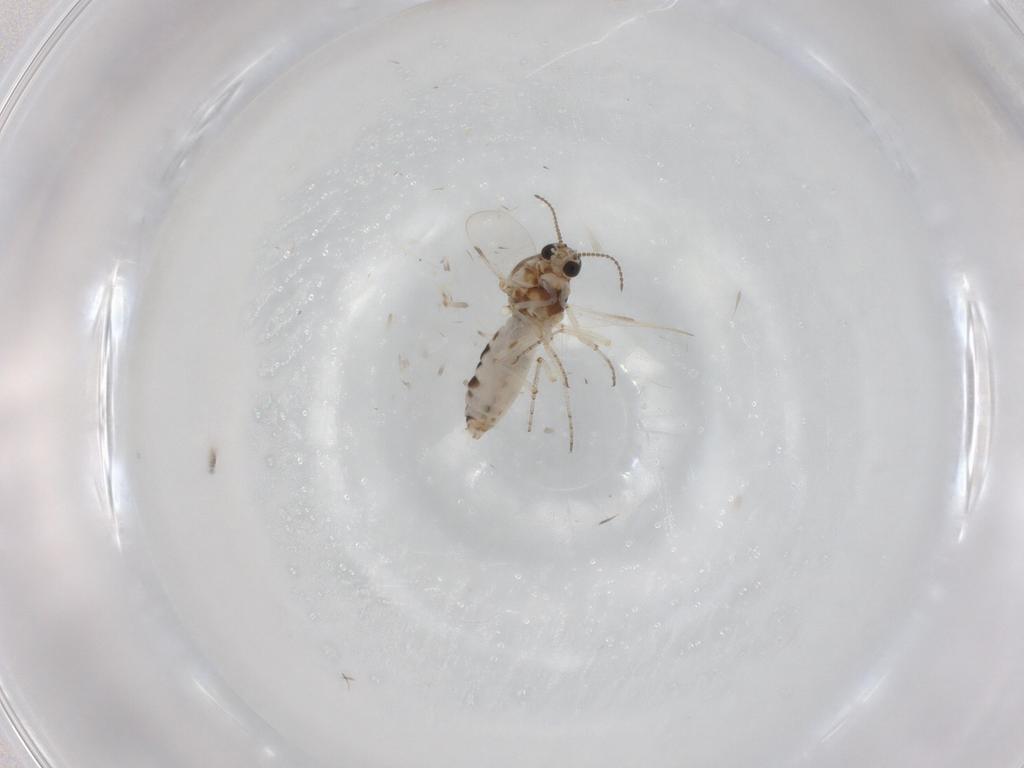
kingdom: Animalia
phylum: Arthropoda
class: Insecta
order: Diptera
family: Ceratopogonidae
